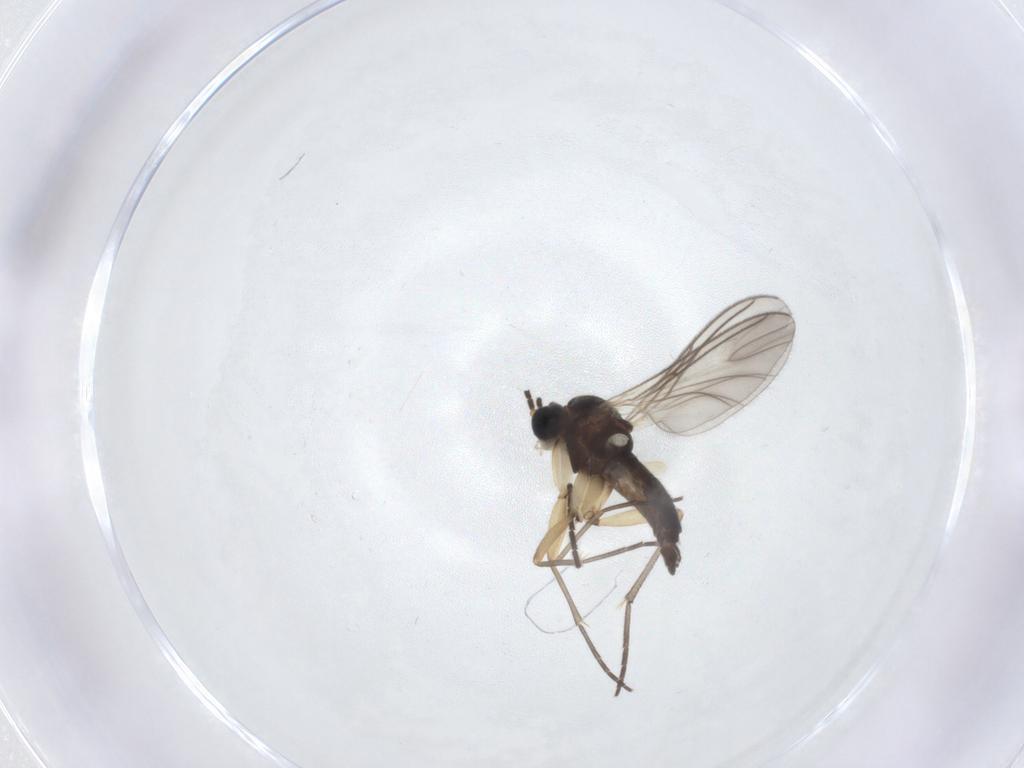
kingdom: Animalia
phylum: Arthropoda
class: Insecta
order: Diptera
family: Sciaridae
